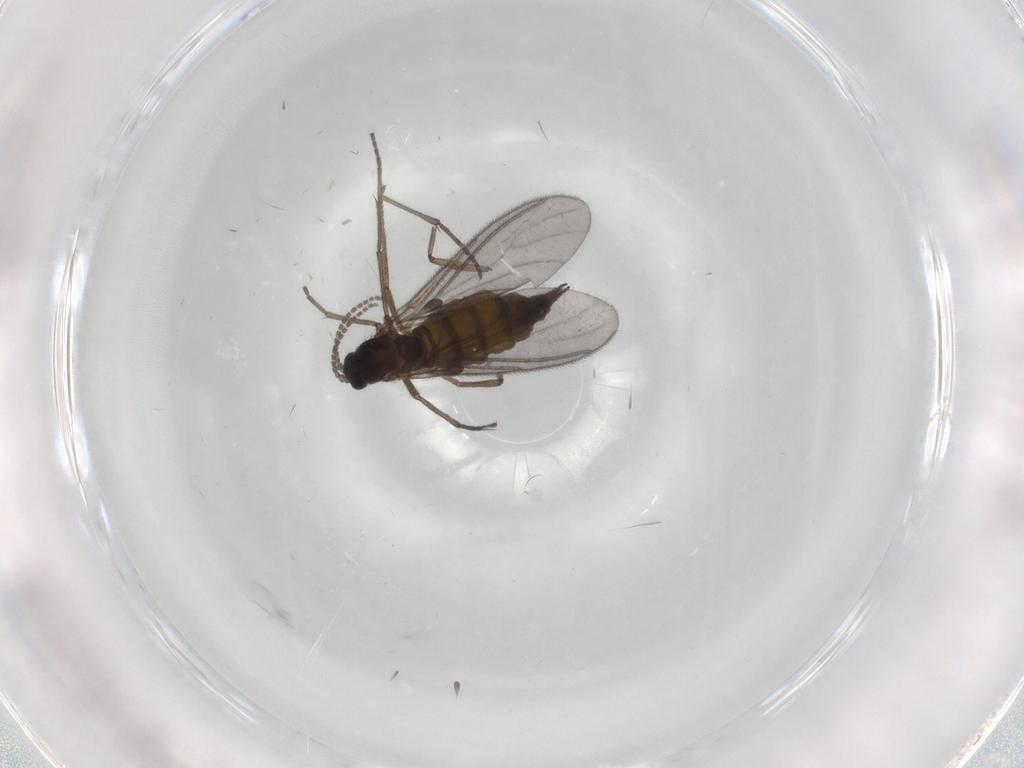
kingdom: Animalia
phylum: Arthropoda
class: Insecta
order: Diptera
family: Sciaridae
